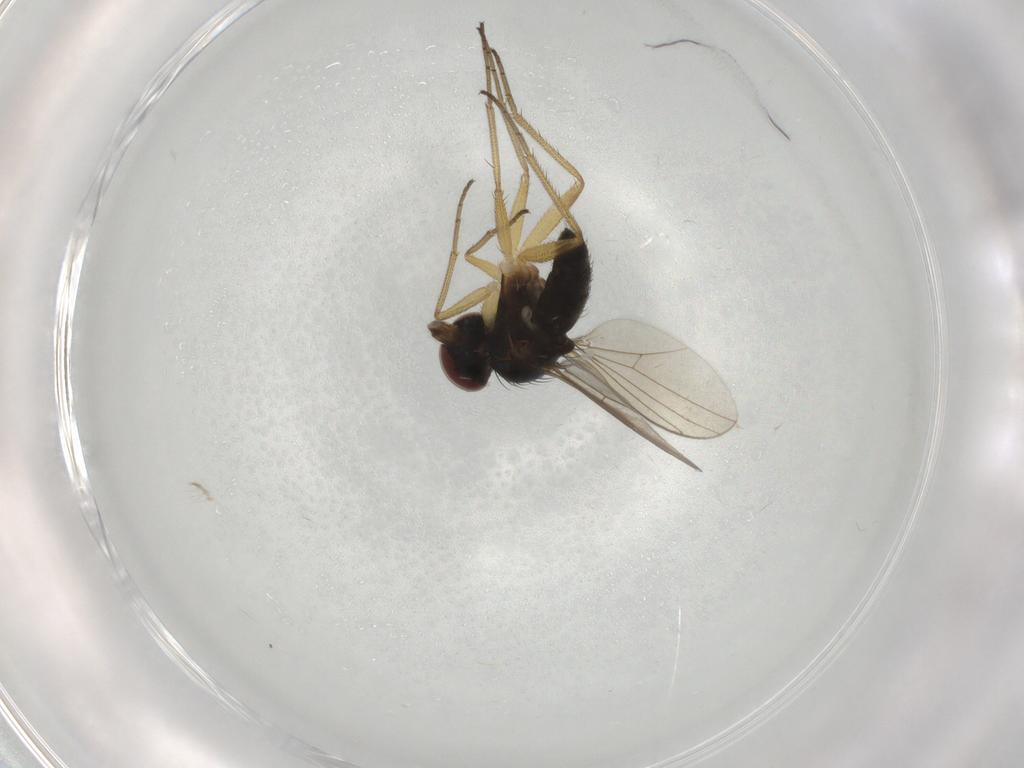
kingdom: Animalia
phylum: Arthropoda
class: Insecta
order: Diptera
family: Dolichopodidae
